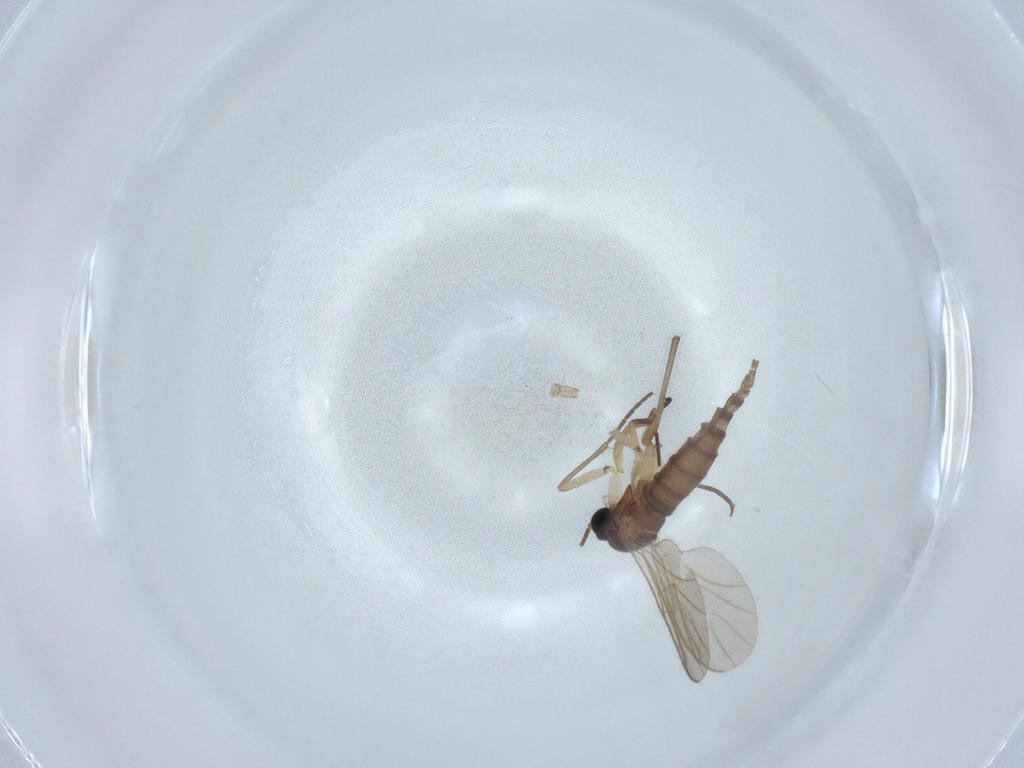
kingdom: Animalia
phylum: Arthropoda
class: Insecta
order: Diptera
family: Sciaridae
